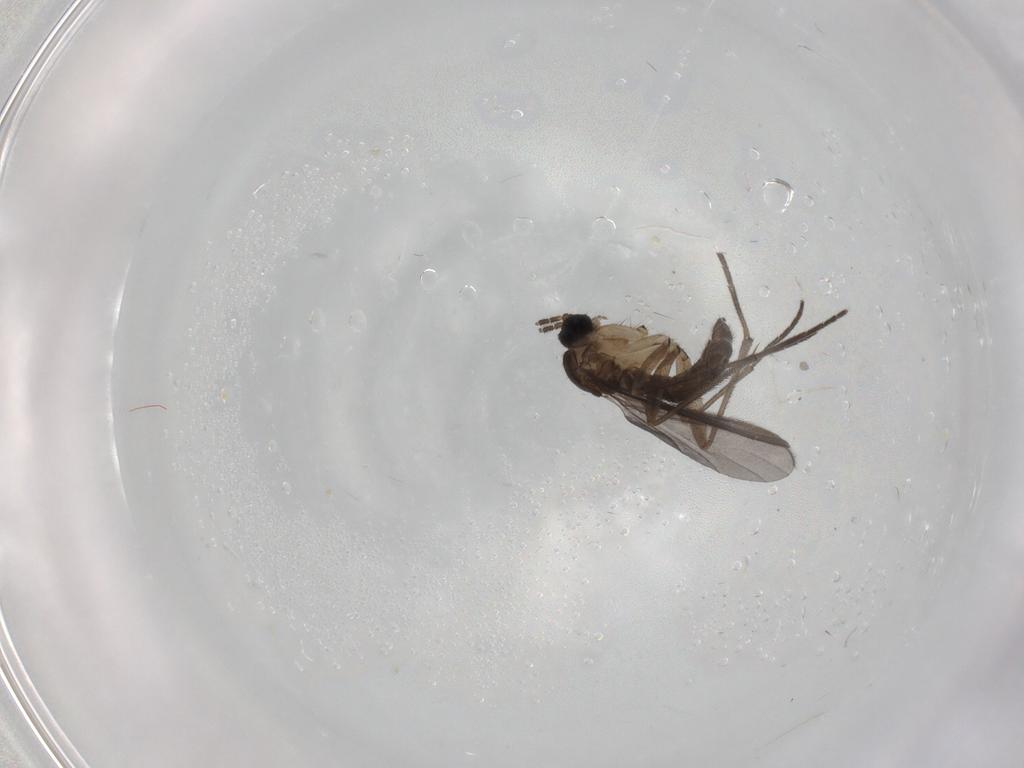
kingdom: Animalia
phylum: Arthropoda
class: Insecta
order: Diptera
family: Sciaridae
